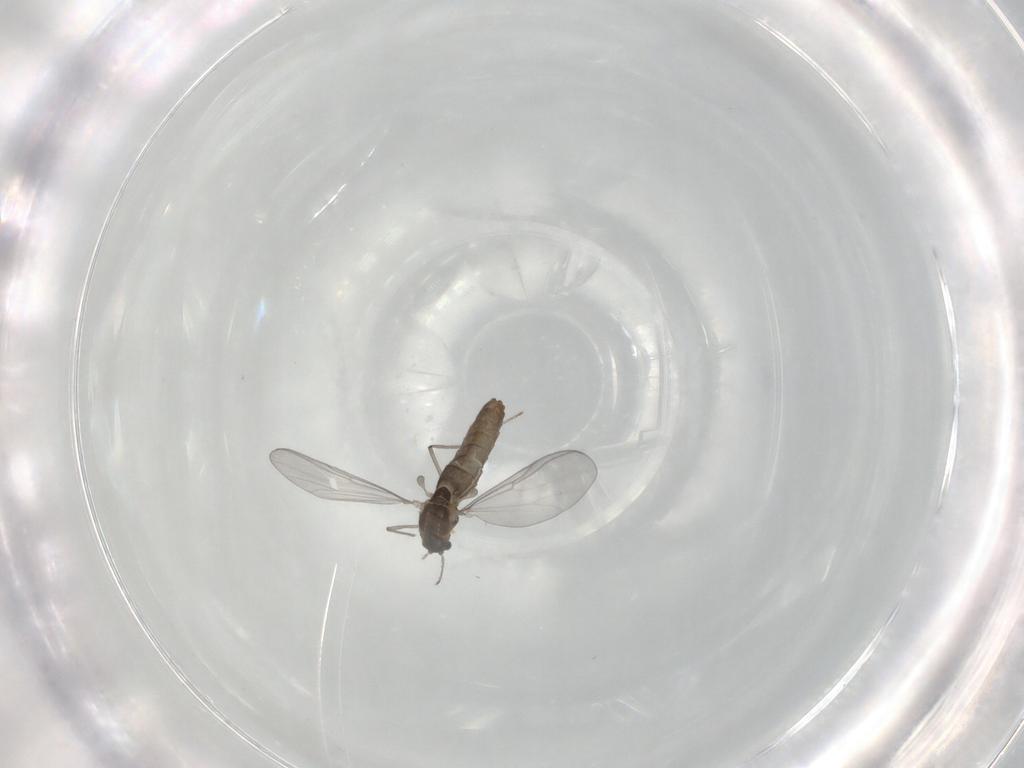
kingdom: Animalia
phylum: Arthropoda
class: Insecta
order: Diptera
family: Chironomidae
